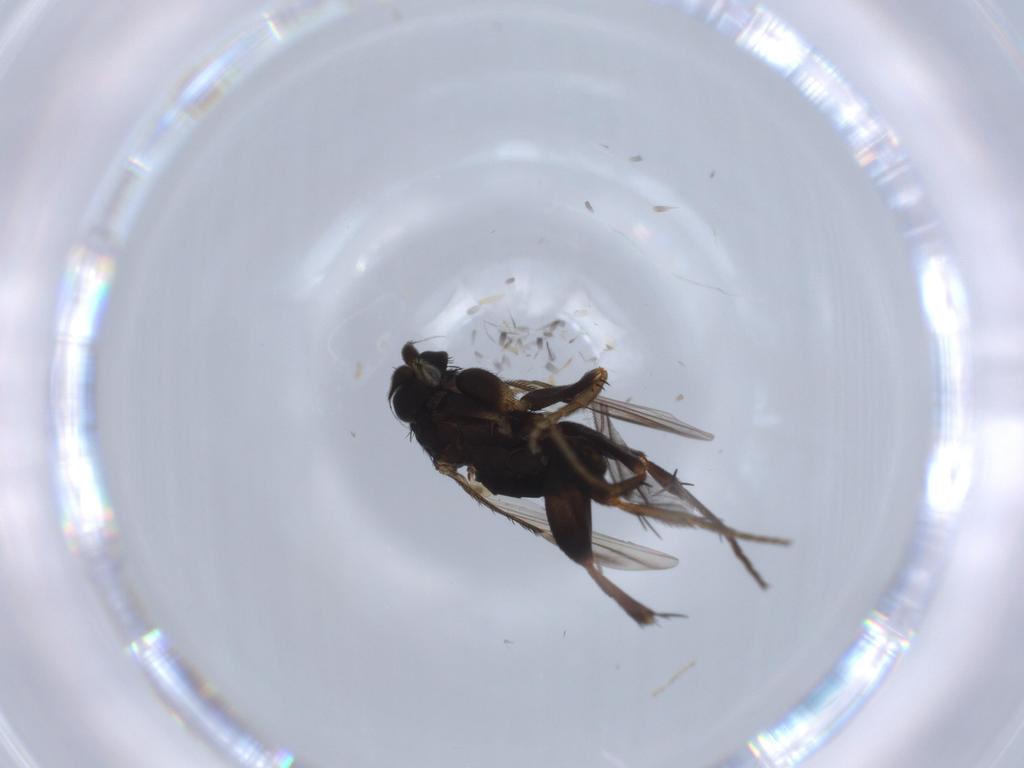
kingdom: Animalia
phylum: Arthropoda
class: Insecta
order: Diptera
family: Phoridae
